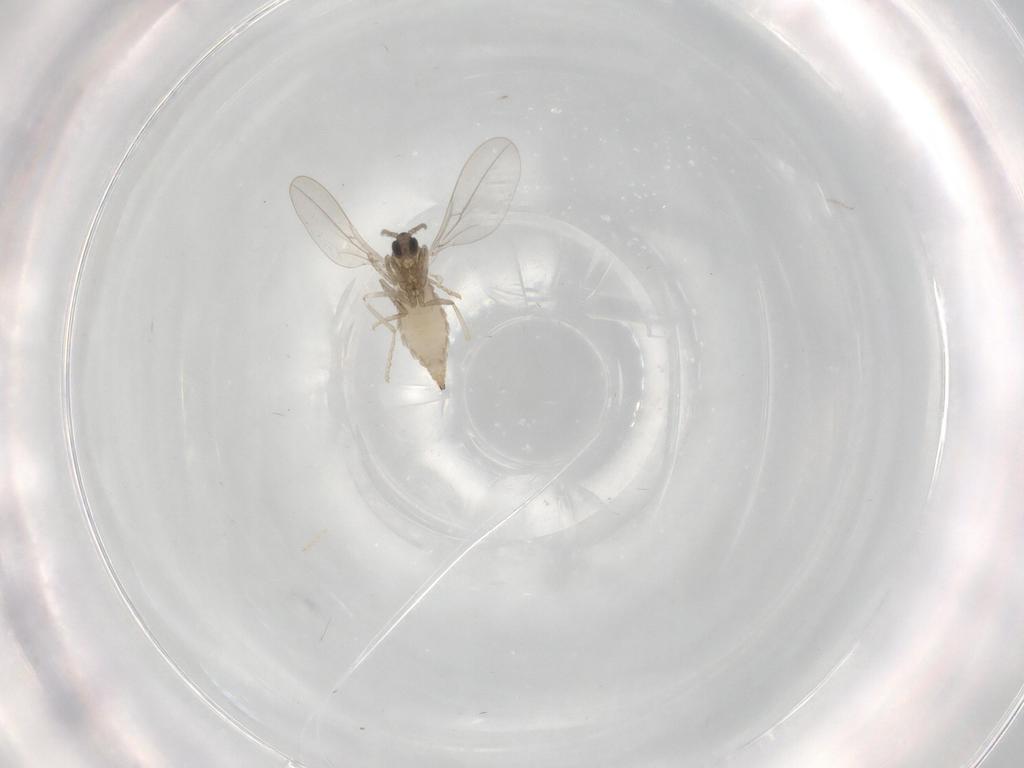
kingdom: Animalia
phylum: Arthropoda
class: Insecta
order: Diptera
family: Cecidomyiidae
